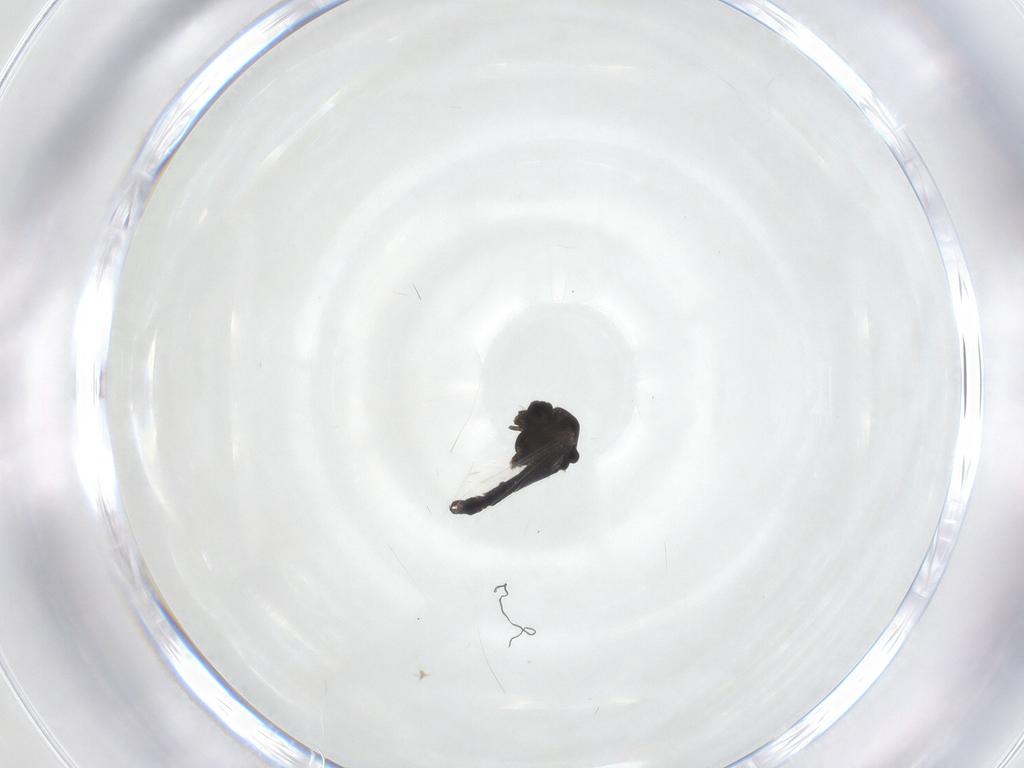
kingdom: Animalia
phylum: Arthropoda
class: Insecta
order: Diptera
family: Chironomidae
